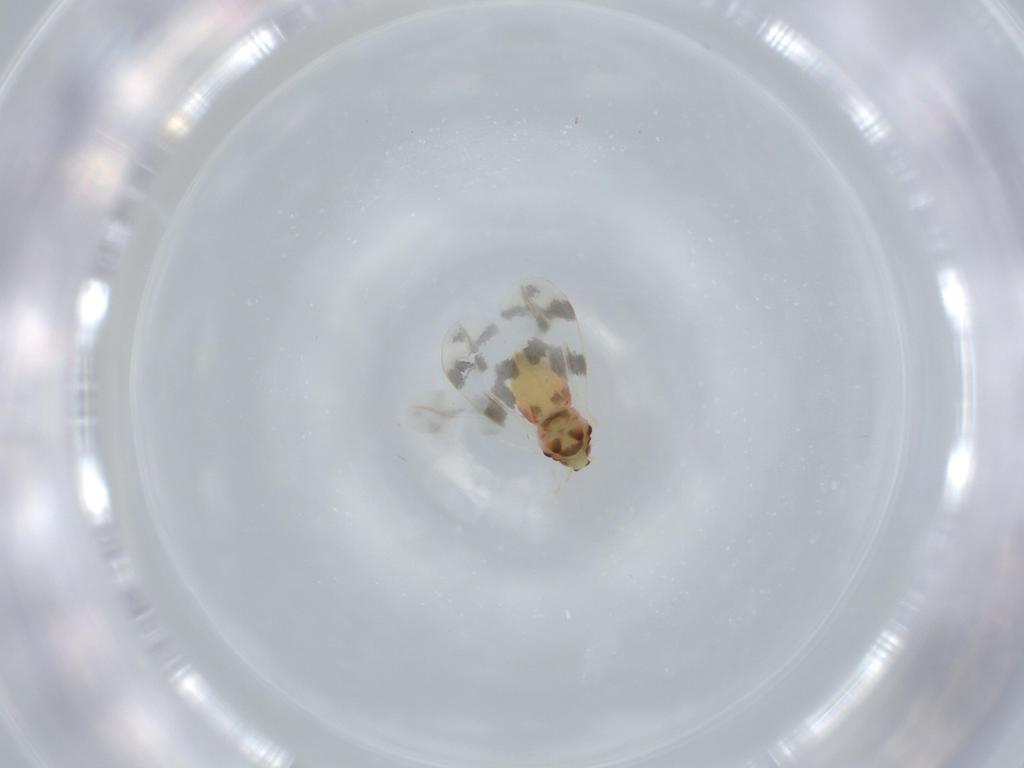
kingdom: Animalia
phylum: Arthropoda
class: Insecta
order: Hemiptera
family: Aleyrodidae
